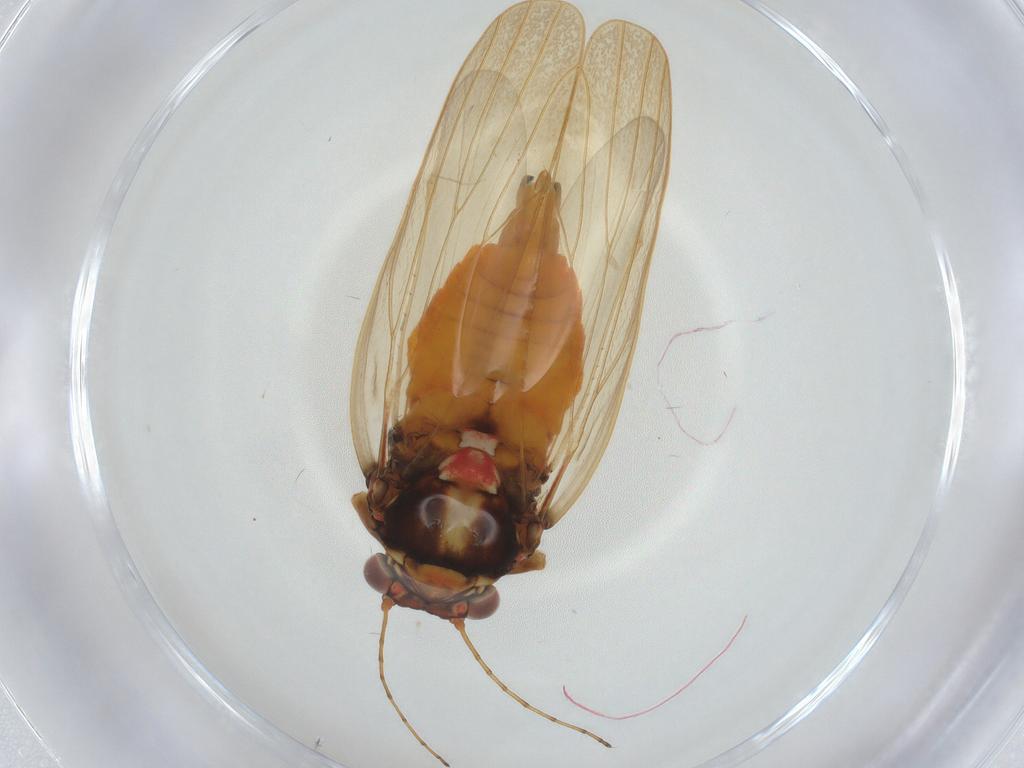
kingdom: Animalia
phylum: Arthropoda
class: Insecta
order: Hemiptera
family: Cicadellidae
